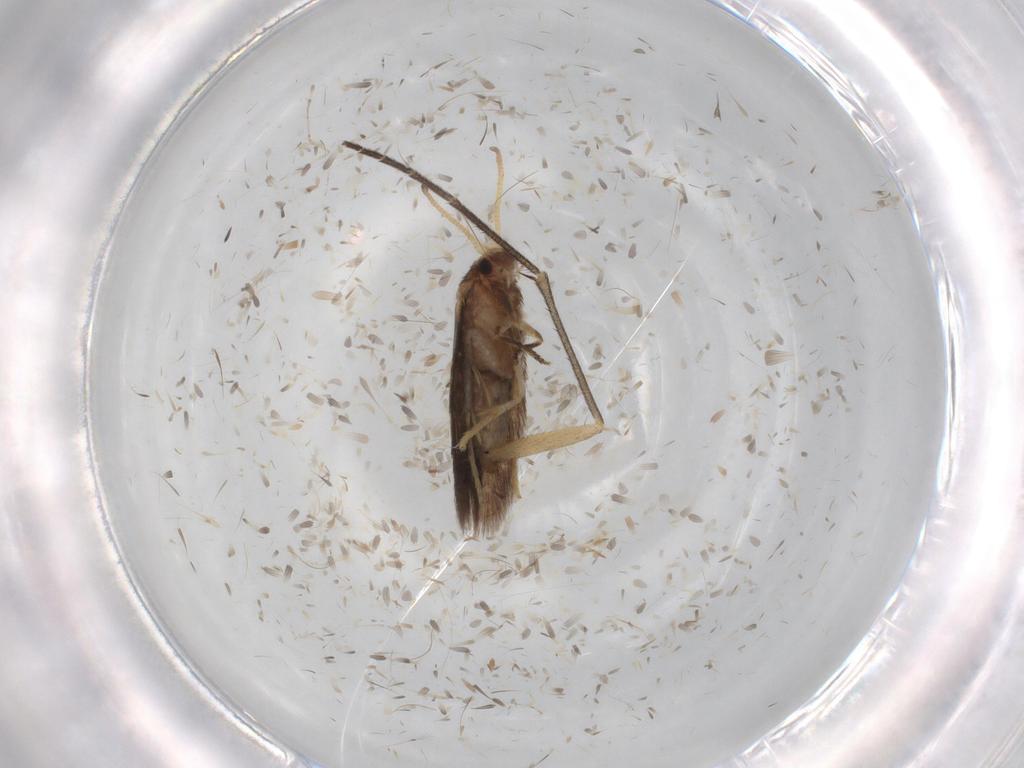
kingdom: Animalia
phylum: Arthropoda
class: Insecta
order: Lepidoptera
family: Nepticulidae
